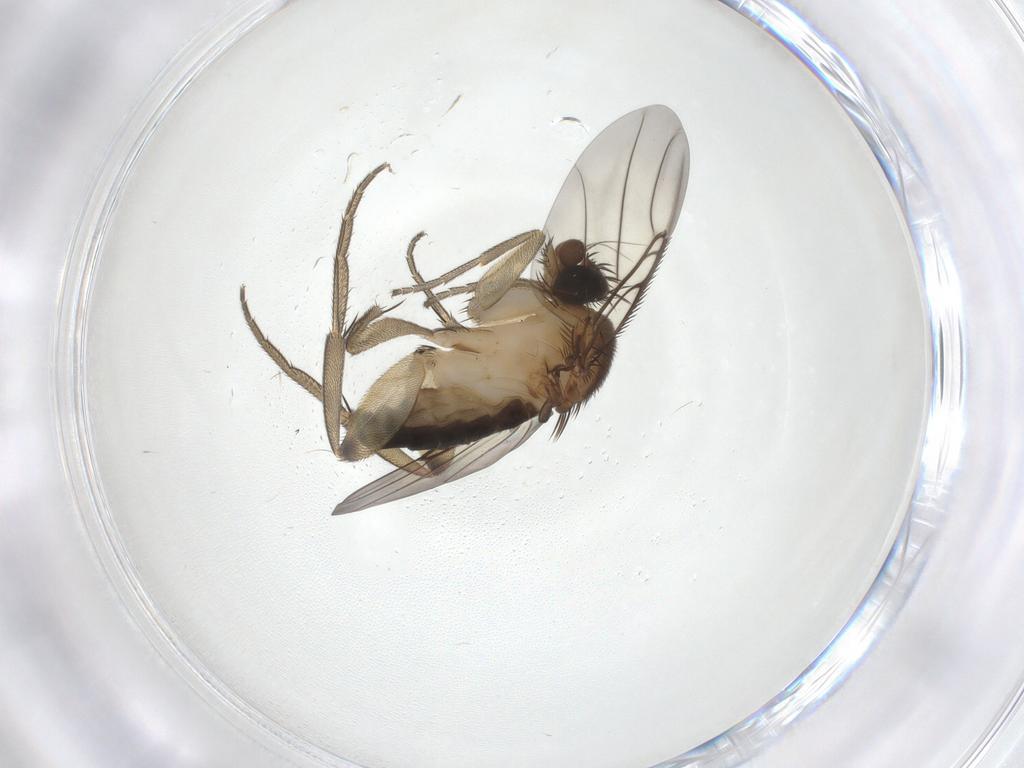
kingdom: Animalia
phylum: Arthropoda
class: Insecta
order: Diptera
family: Phoridae
